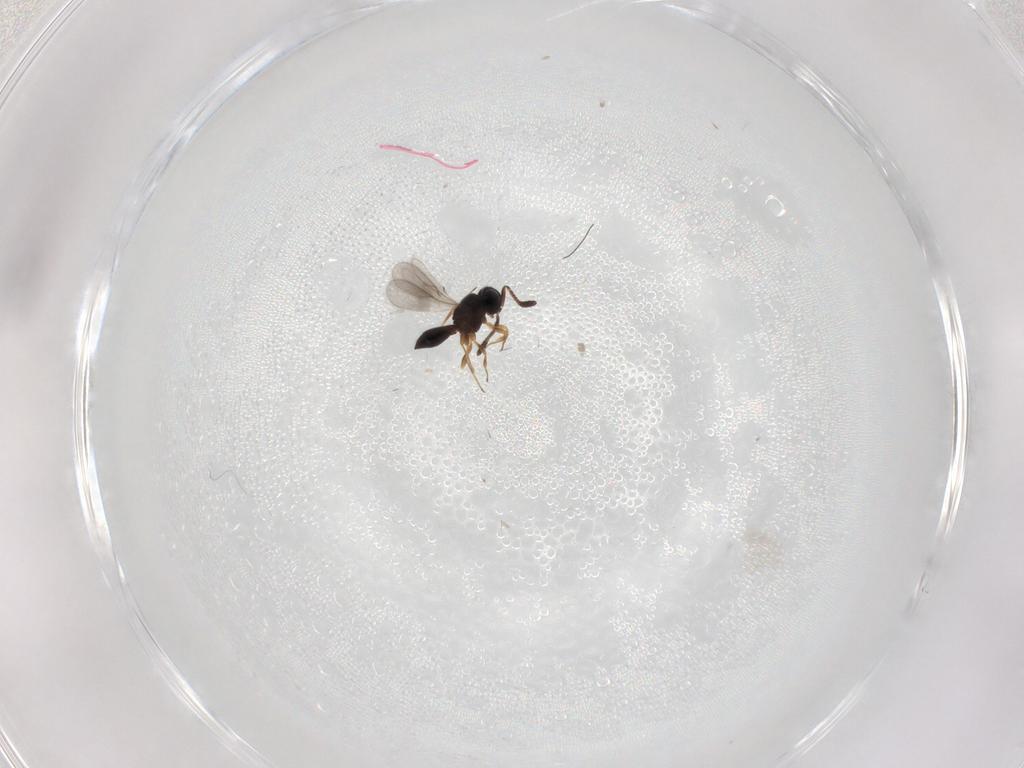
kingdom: Animalia
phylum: Arthropoda
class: Insecta
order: Hymenoptera
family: Scelionidae
